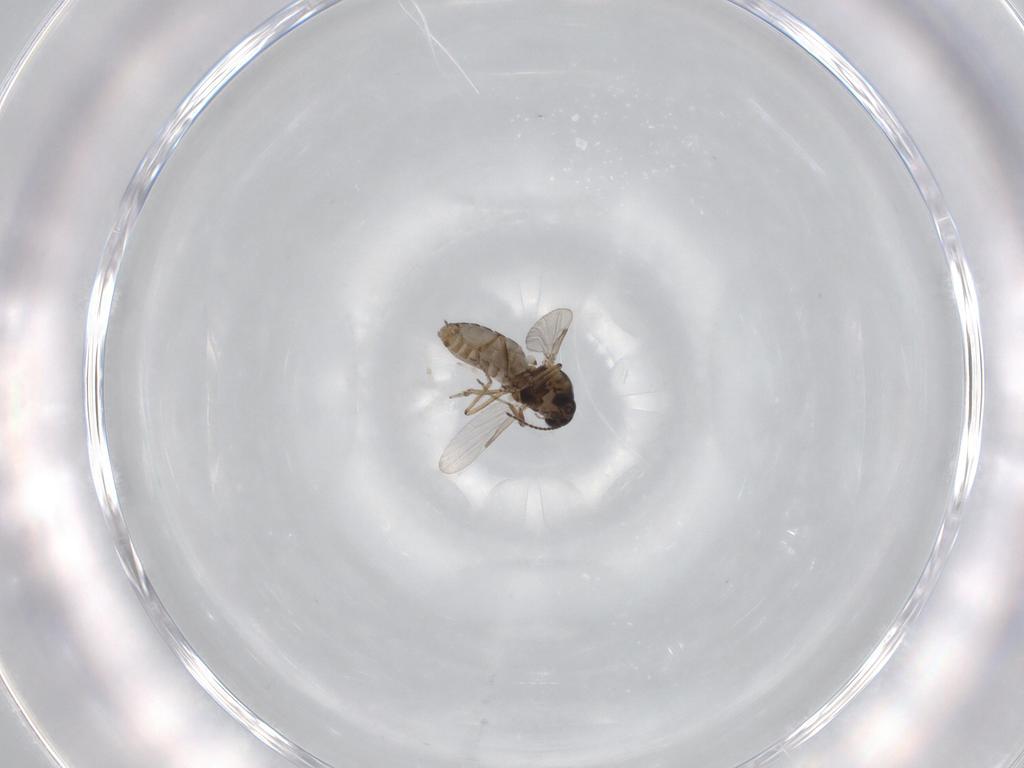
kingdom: Animalia
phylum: Arthropoda
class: Insecta
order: Diptera
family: Ceratopogonidae
